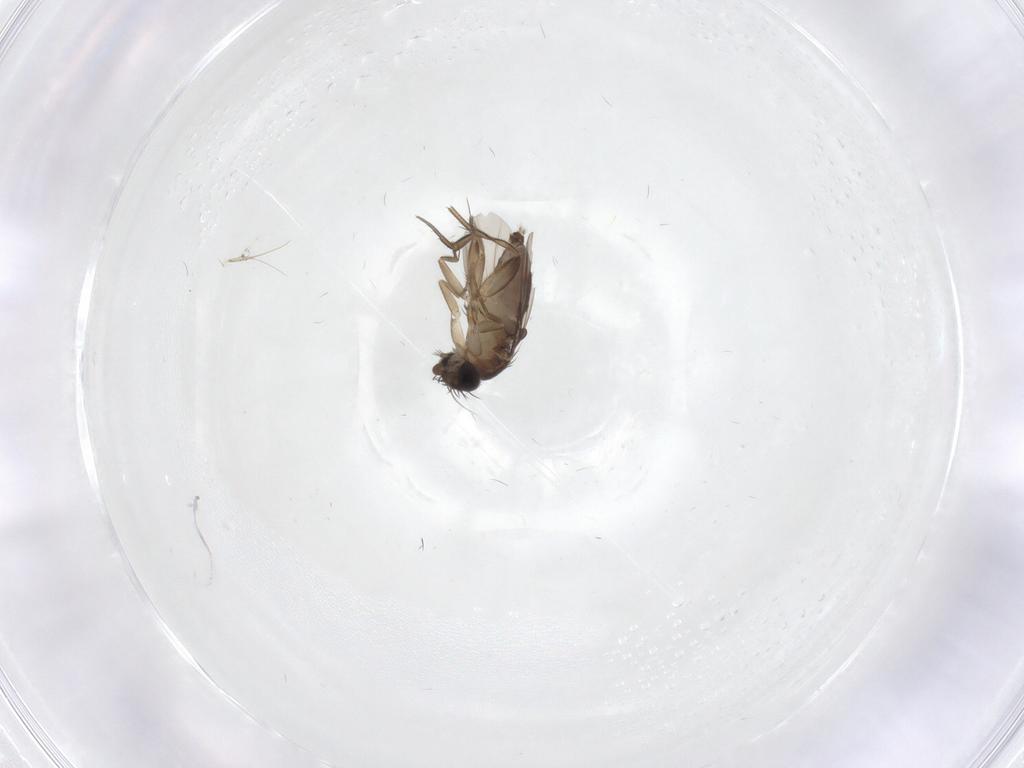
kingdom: Animalia
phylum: Arthropoda
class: Insecta
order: Diptera
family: Phoridae
